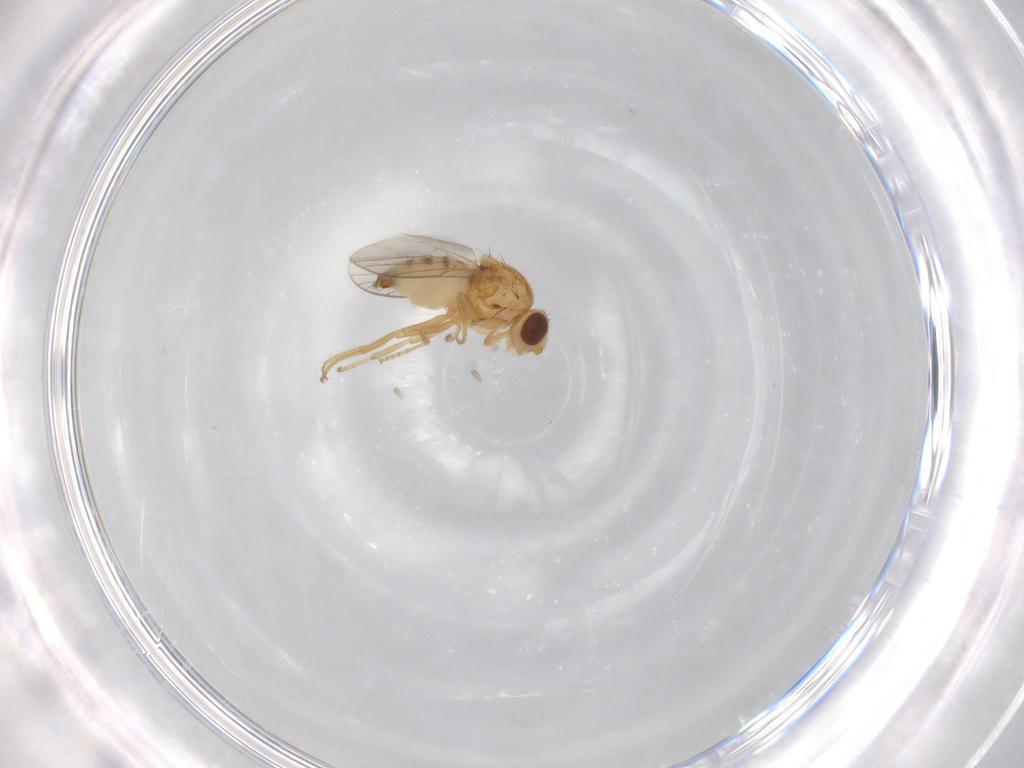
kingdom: Animalia
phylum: Arthropoda
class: Insecta
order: Diptera
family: Chloropidae
